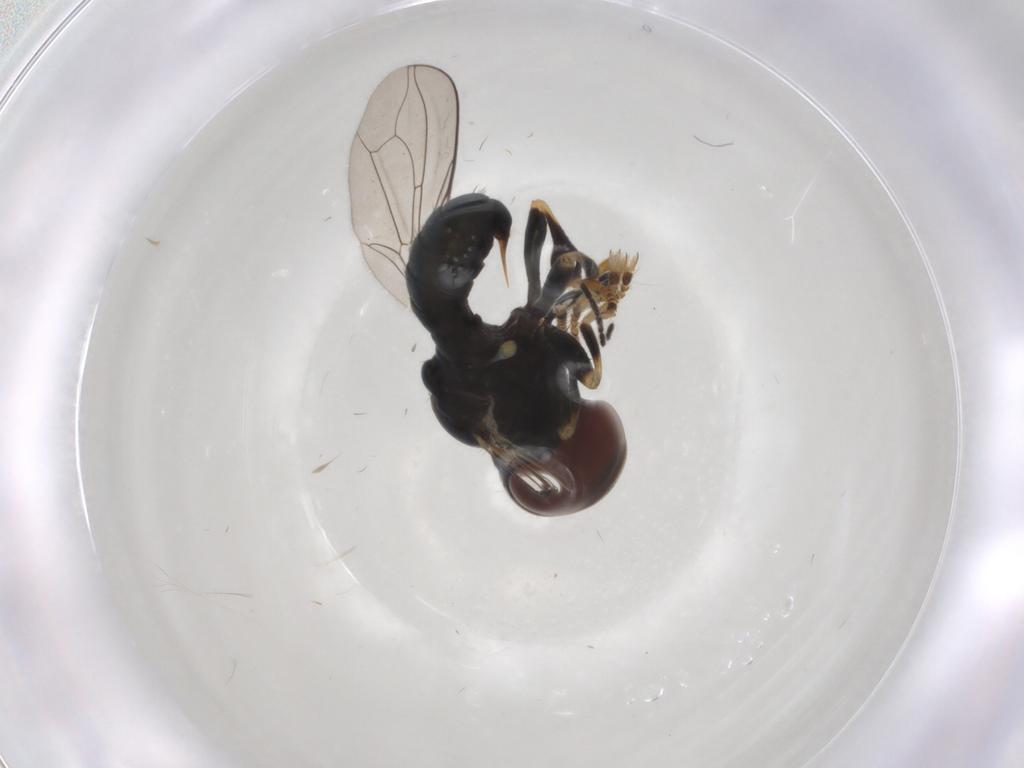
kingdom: Animalia
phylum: Arthropoda
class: Insecta
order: Diptera
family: Pipunculidae
